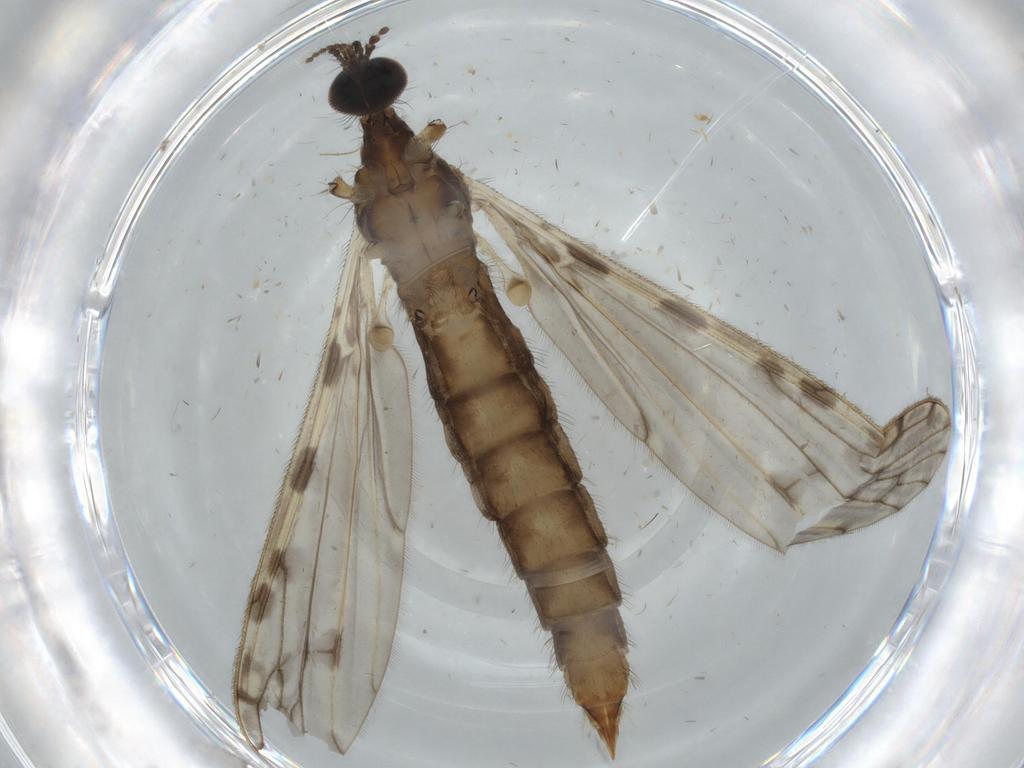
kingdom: Animalia
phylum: Arthropoda
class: Insecta
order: Diptera
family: Cecidomyiidae
